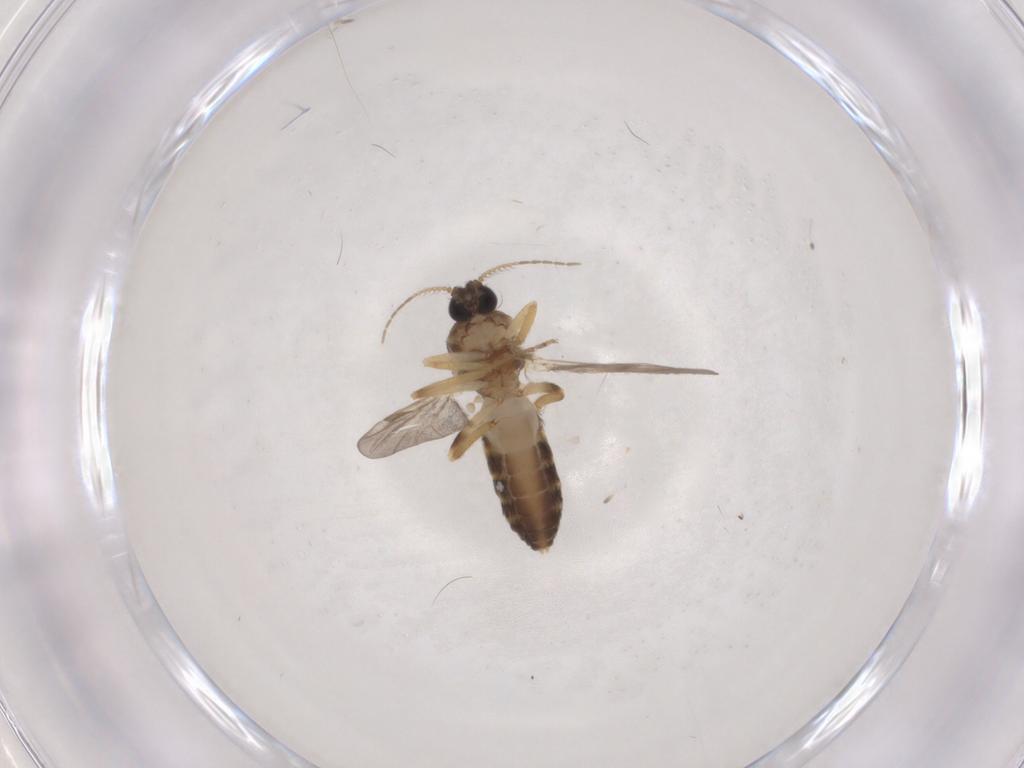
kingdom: Animalia
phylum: Arthropoda
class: Insecta
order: Diptera
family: Ceratopogonidae
